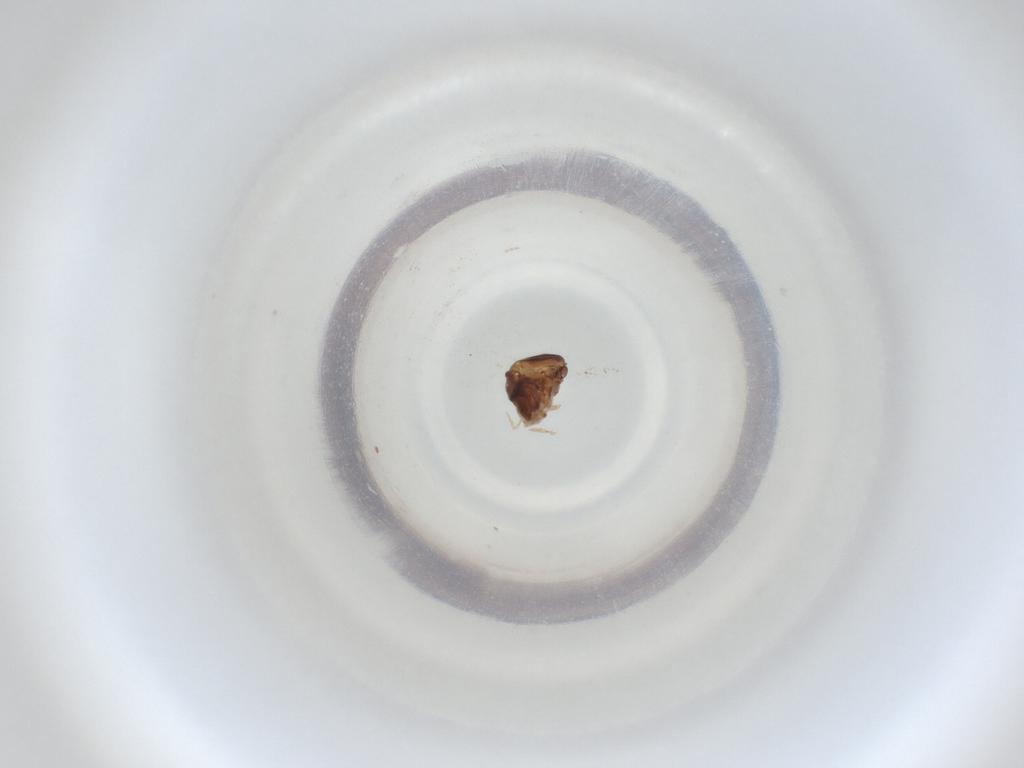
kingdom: Animalia
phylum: Arthropoda
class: Insecta
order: Diptera
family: Cecidomyiidae
